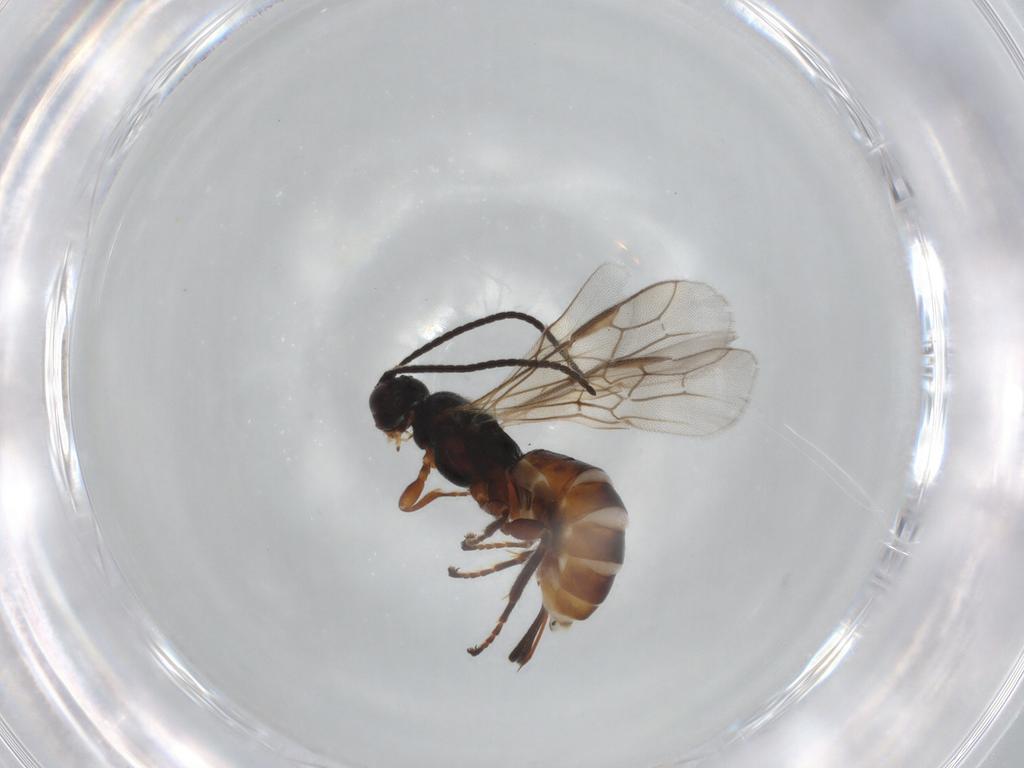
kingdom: Animalia
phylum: Arthropoda
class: Insecta
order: Hymenoptera
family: Braconidae
